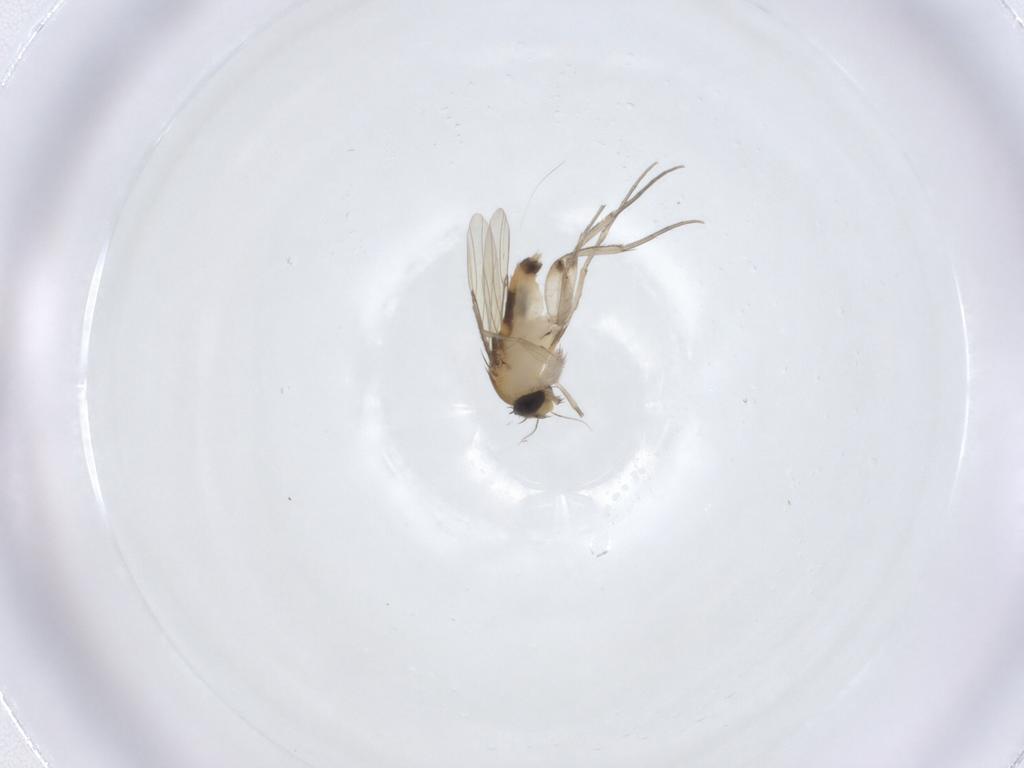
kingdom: Animalia
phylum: Arthropoda
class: Insecta
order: Diptera
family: Phoridae
